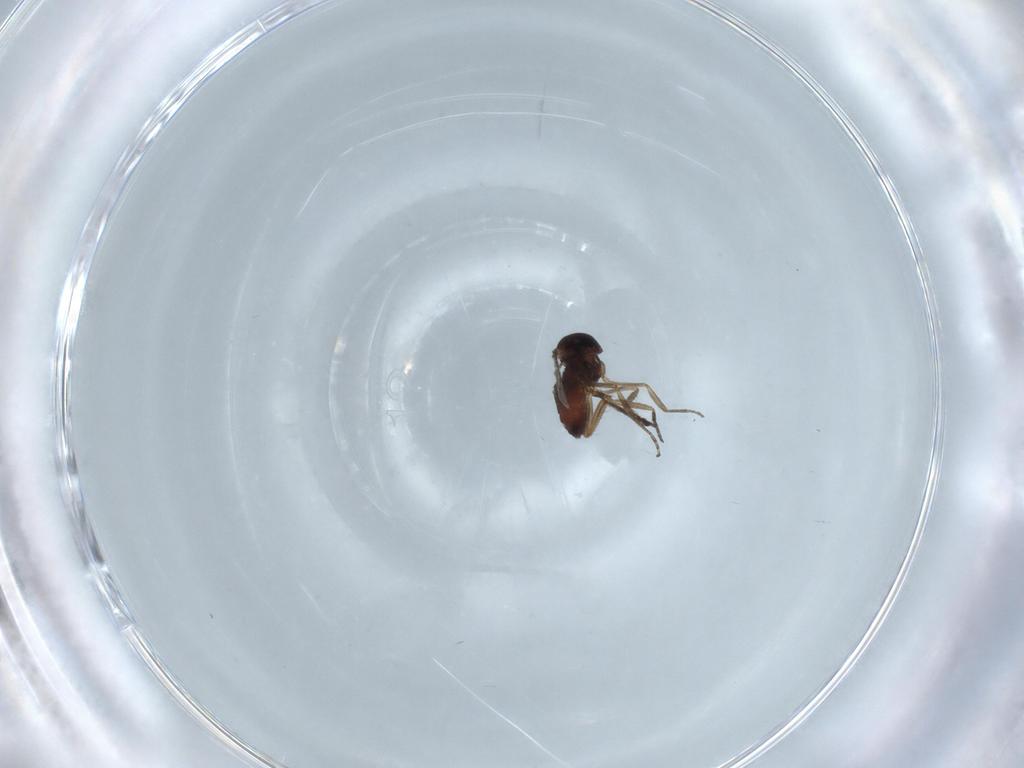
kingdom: Animalia
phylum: Arthropoda
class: Insecta
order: Diptera
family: Ceratopogonidae
